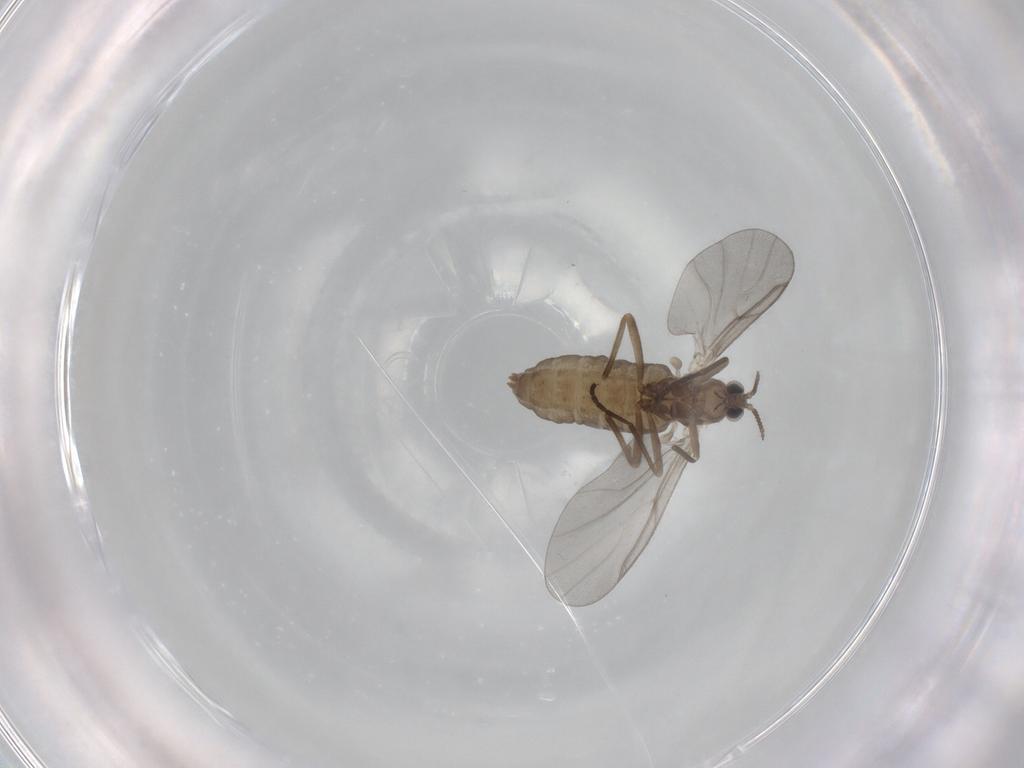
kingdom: Animalia
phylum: Arthropoda
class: Insecta
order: Diptera
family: Cecidomyiidae
